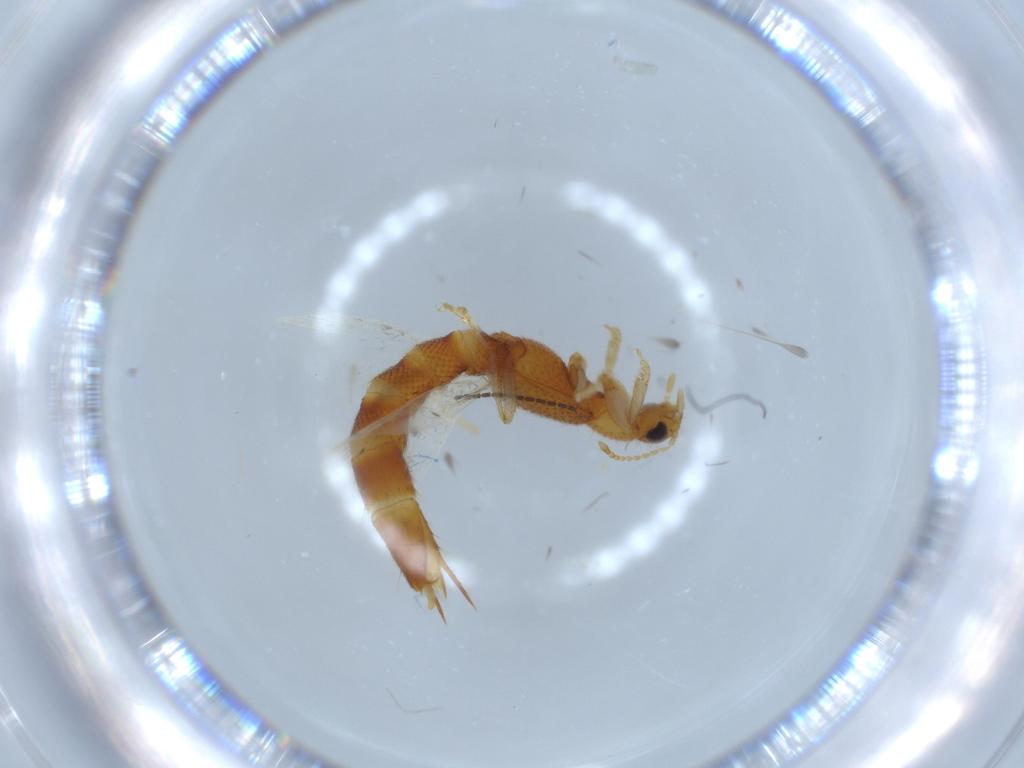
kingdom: Animalia
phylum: Arthropoda
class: Insecta
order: Coleoptera
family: Staphylinidae
